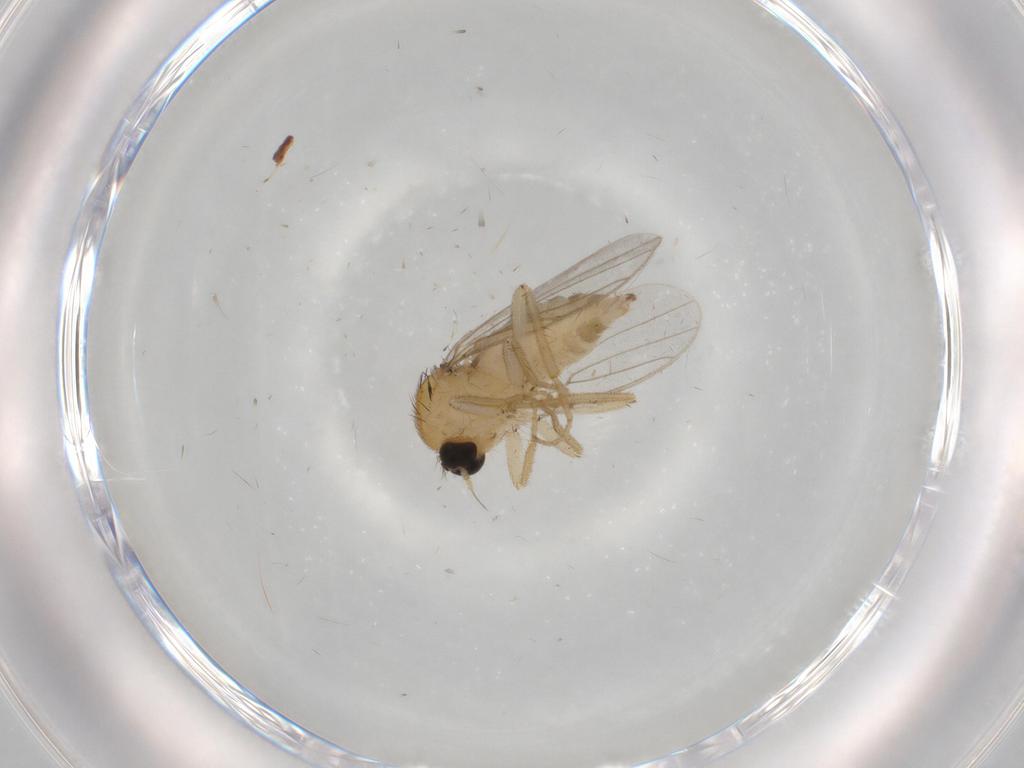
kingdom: Animalia
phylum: Arthropoda
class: Insecta
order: Diptera
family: Hybotidae
